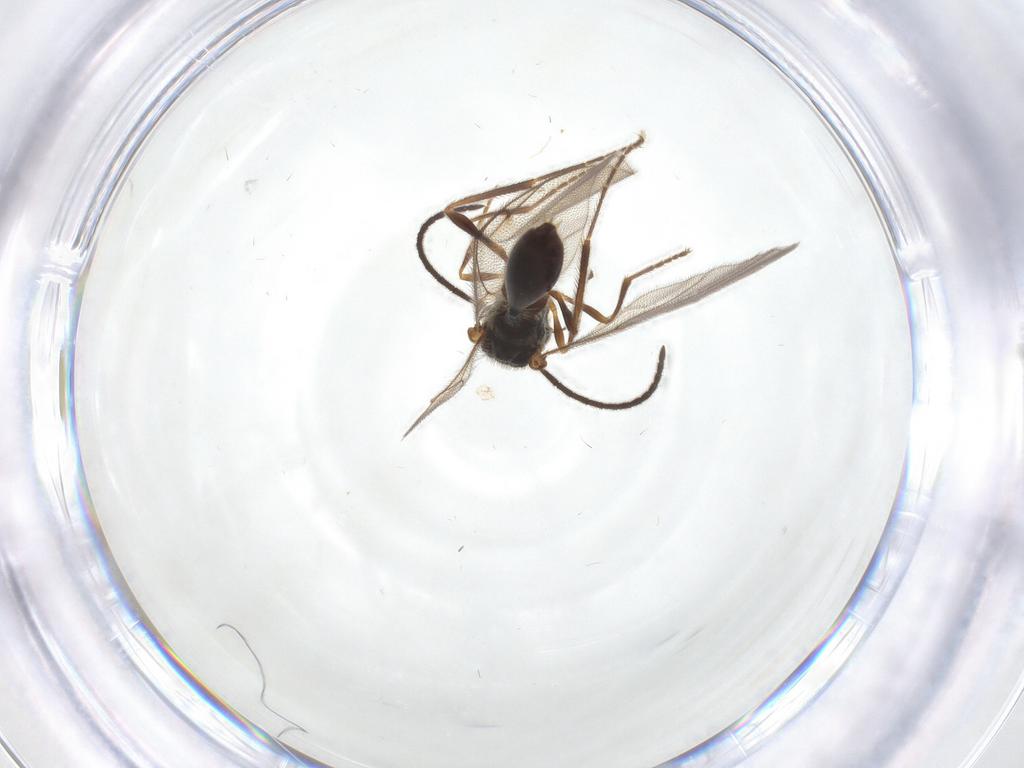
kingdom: Animalia
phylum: Arthropoda
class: Insecta
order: Hymenoptera
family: Diapriidae
